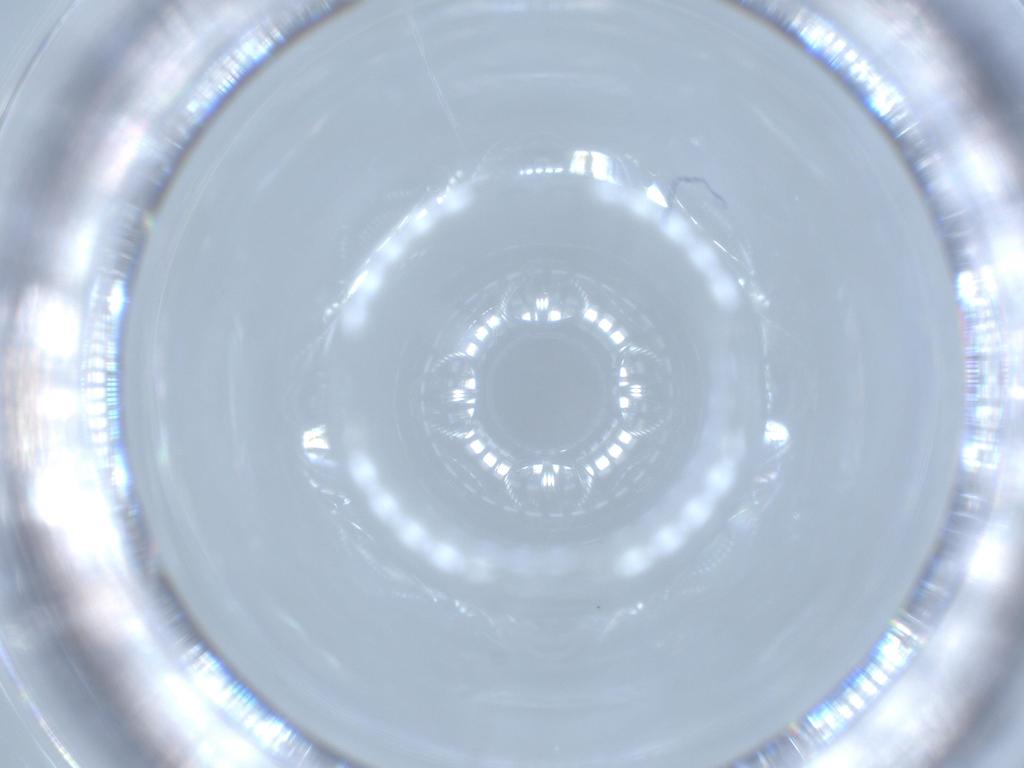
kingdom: Animalia
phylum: Arthropoda
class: Insecta
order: Diptera
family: Psychodidae
